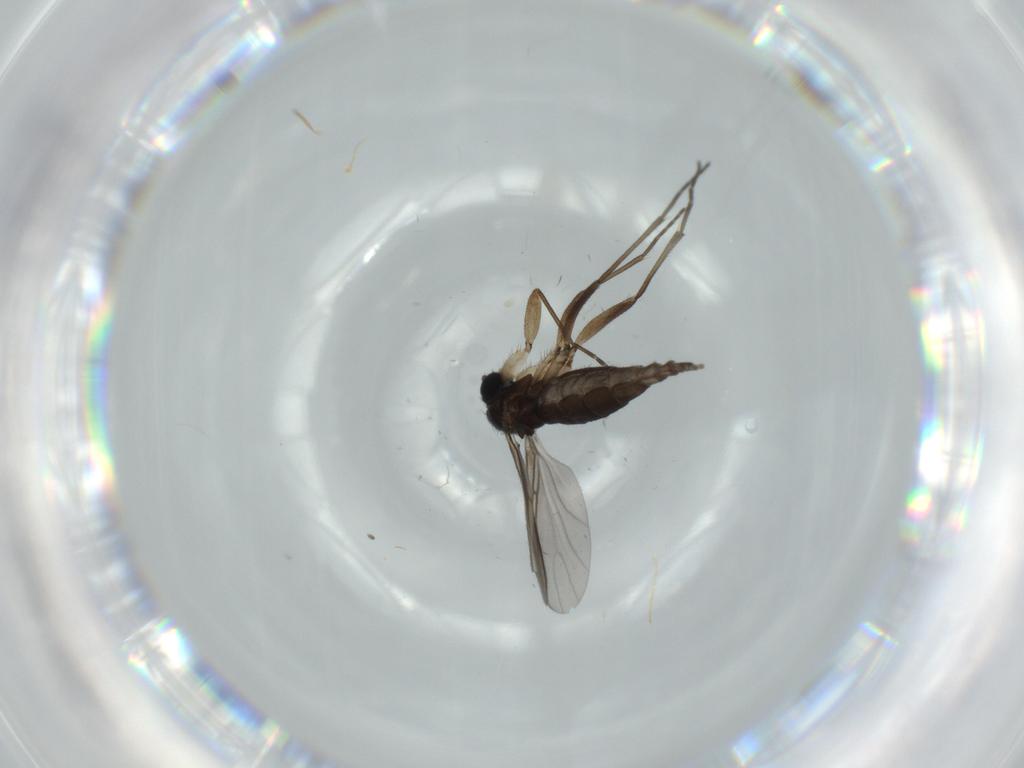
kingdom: Animalia
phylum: Arthropoda
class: Insecta
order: Diptera
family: Sciaridae
